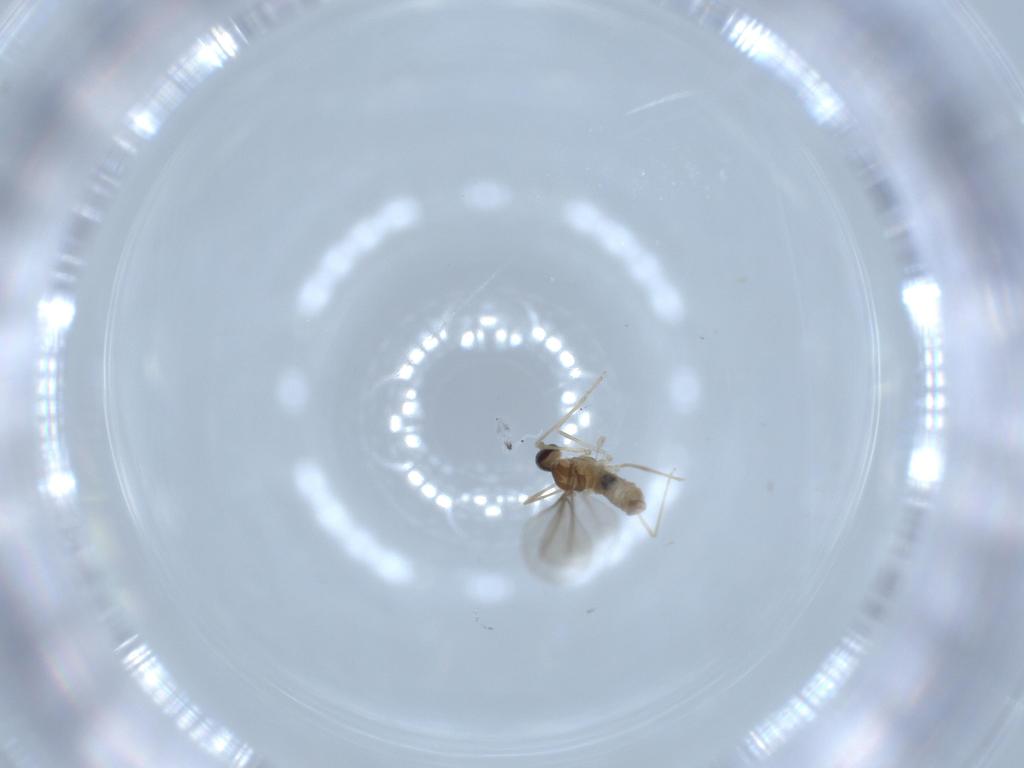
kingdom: Animalia
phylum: Arthropoda
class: Insecta
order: Diptera
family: Cecidomyiidae
